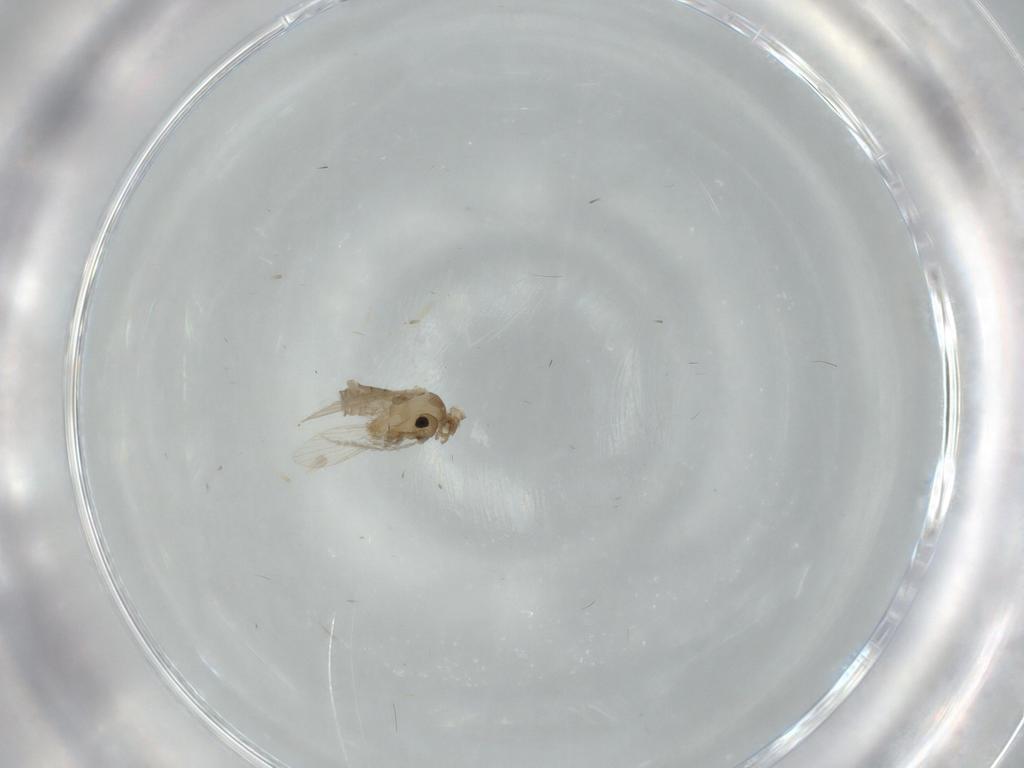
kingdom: Animalia
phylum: Arthropoda
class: Insecta
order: Diptera
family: Psychodidae
